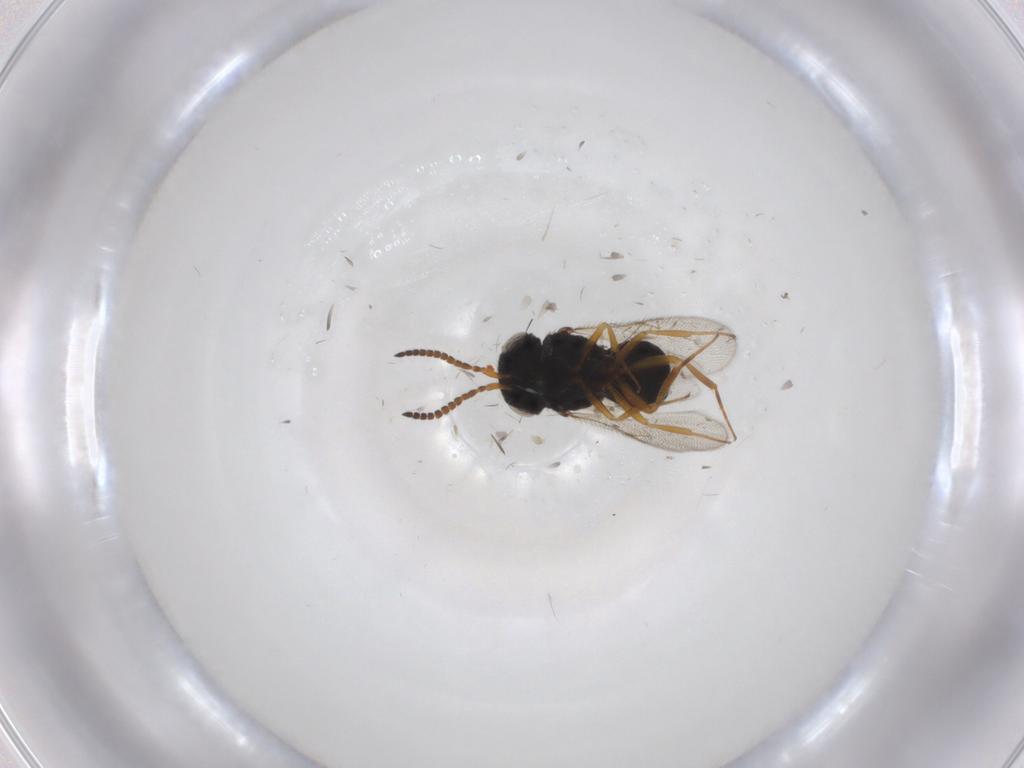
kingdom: Animalia
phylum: Arthropoda
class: Insecta
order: Hymenoptera
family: Scelionidae
